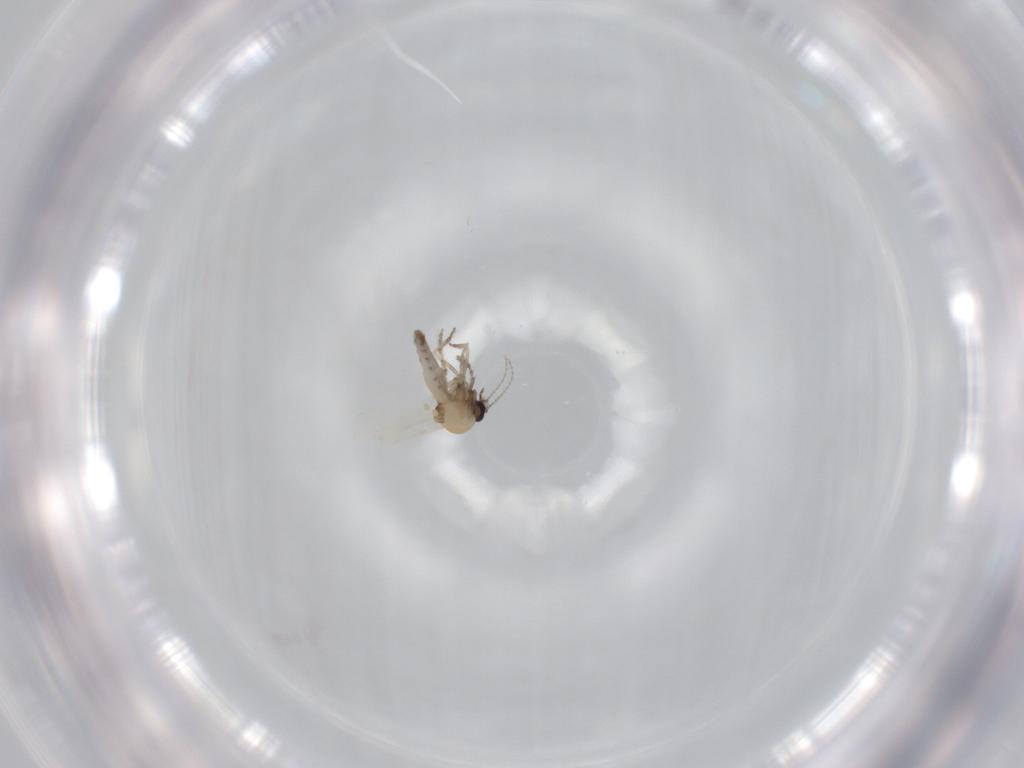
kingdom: Animalia
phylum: Arthropoda
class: Insecta
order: Diptera
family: Ceratopogonidae
